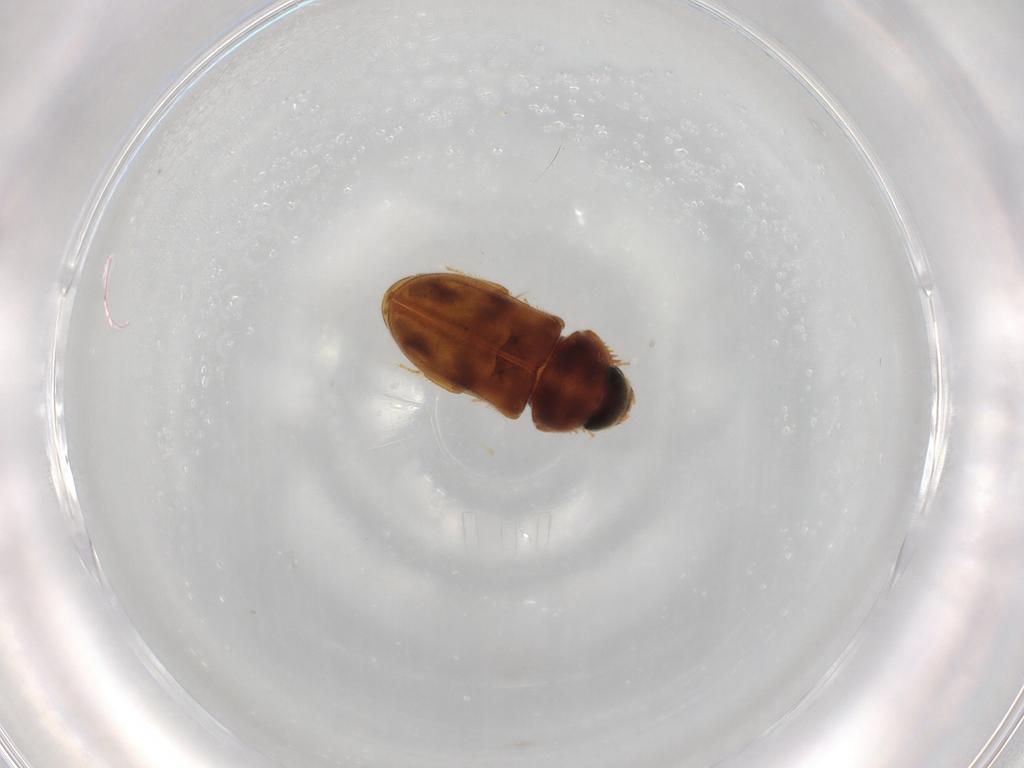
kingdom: Animalia
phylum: Arthropoda
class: Insecta
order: Coleoptera
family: Heteroceridae
